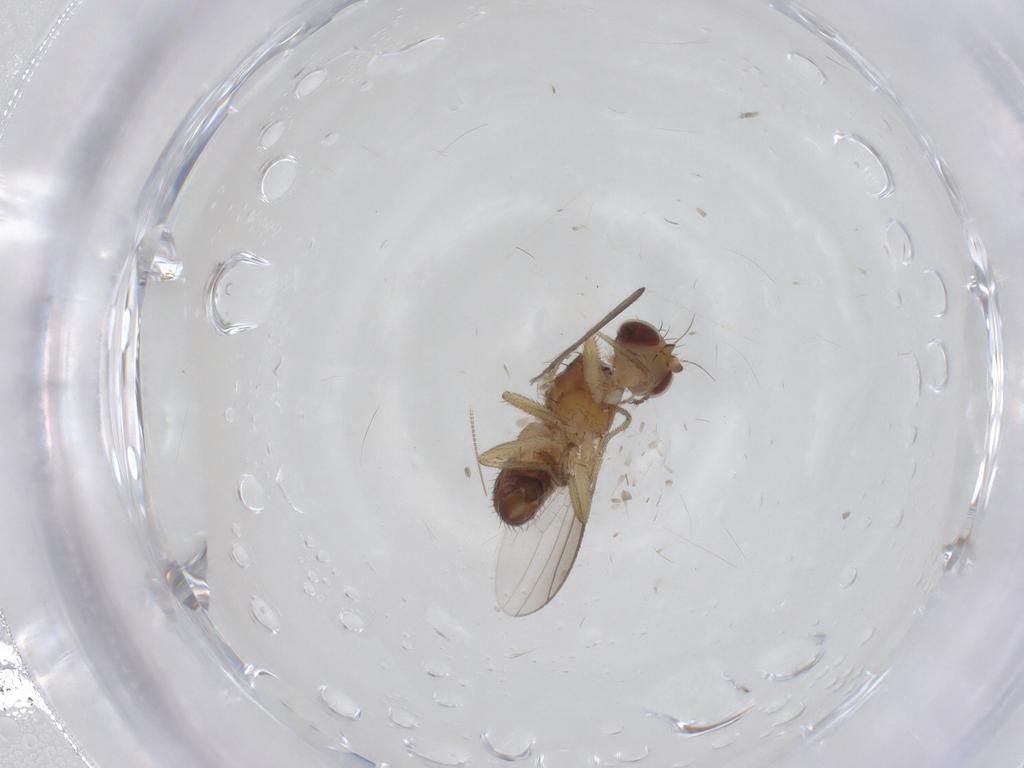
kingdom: Animalia
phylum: Arthropoda
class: Insecta
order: Diptera
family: Heleomyzidae
